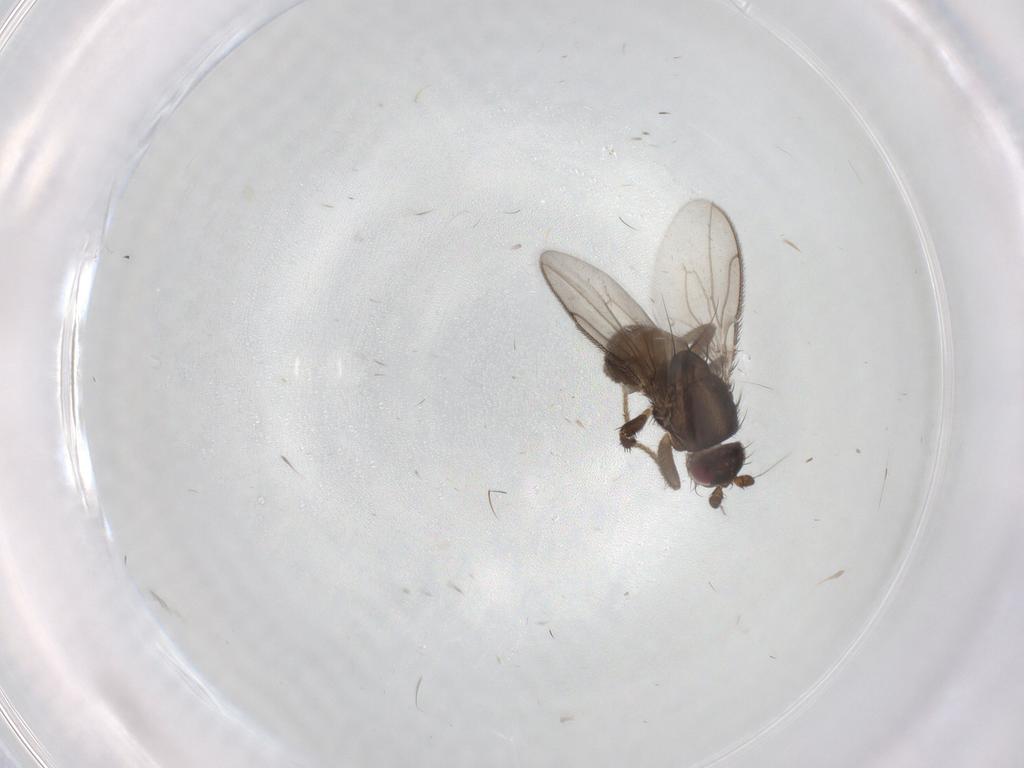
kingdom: Animalia
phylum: Arthropoda
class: Insecta
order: Diptera
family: Sphaeroceridae
